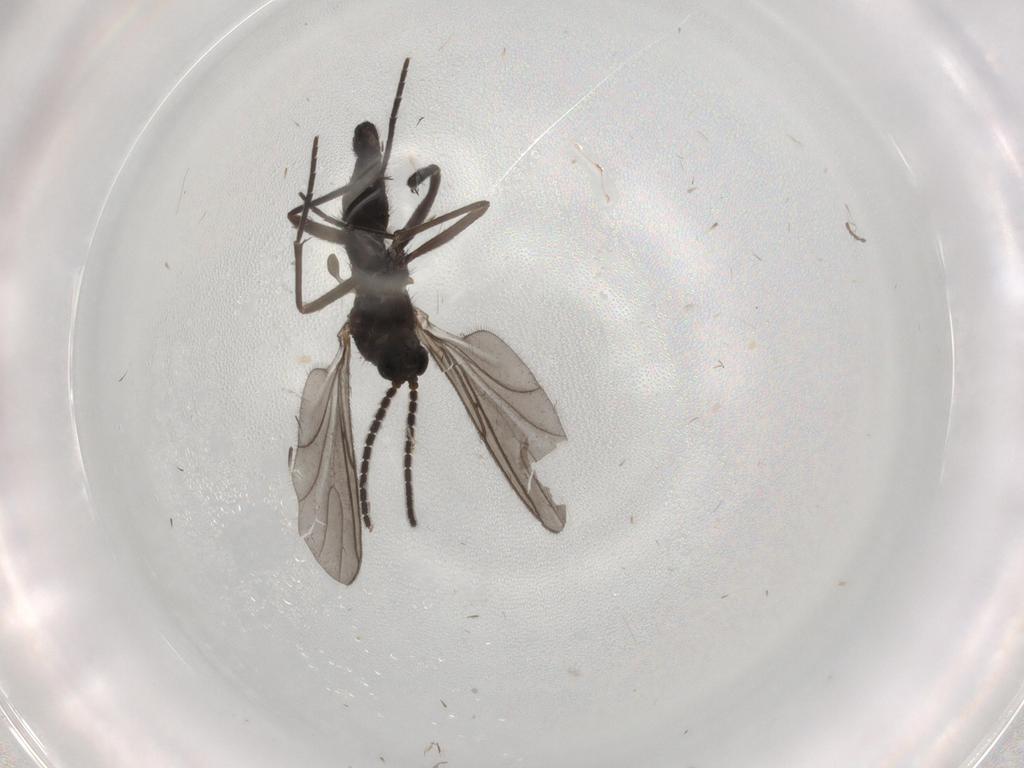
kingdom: Animalia
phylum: Arthropoda
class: Insecta
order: Diptera
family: Sciaridae
